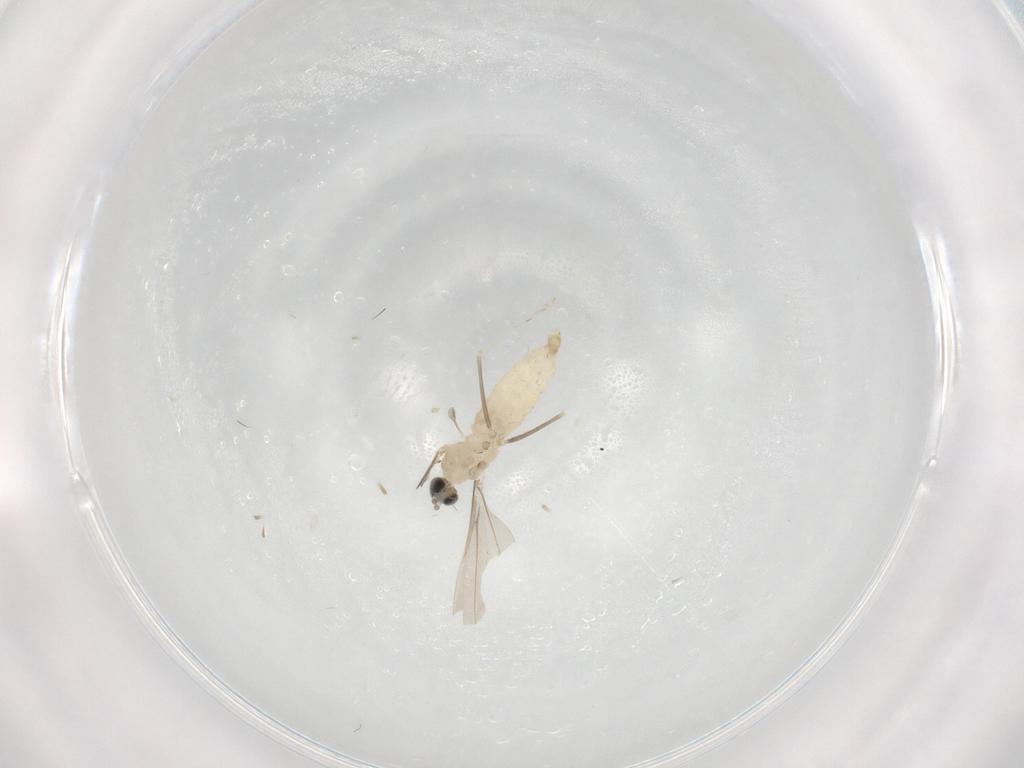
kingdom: Animalia
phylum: Arthropoda
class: Insecta
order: Diptera
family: Cecidomyiidae
